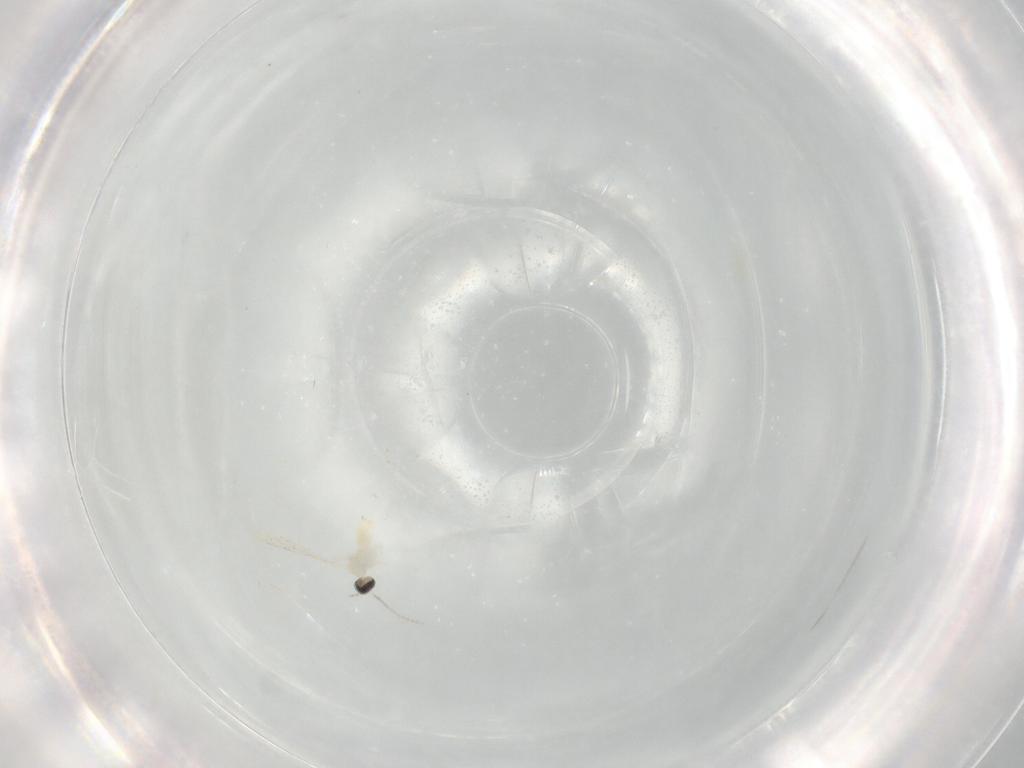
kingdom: Animalia
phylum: Arthropoda
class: Insecta
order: Diptera
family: Cecidomyiidae
